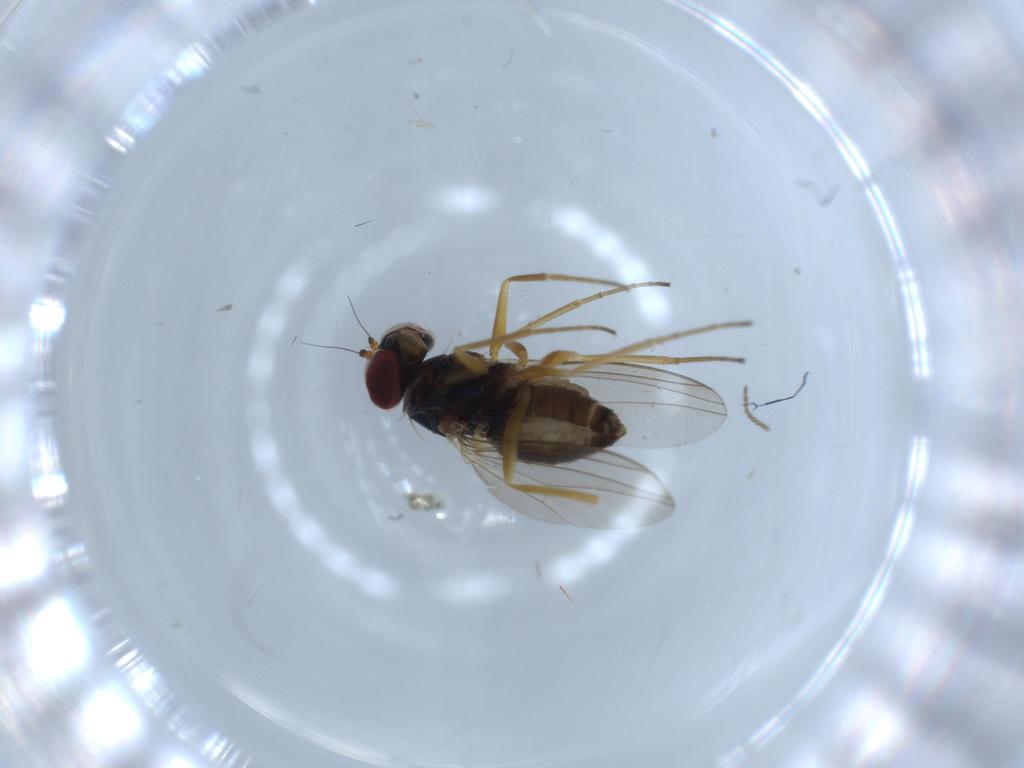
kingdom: Animalia
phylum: Arthropoda
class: Insecta
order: Diptera
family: Dolichopodidae
